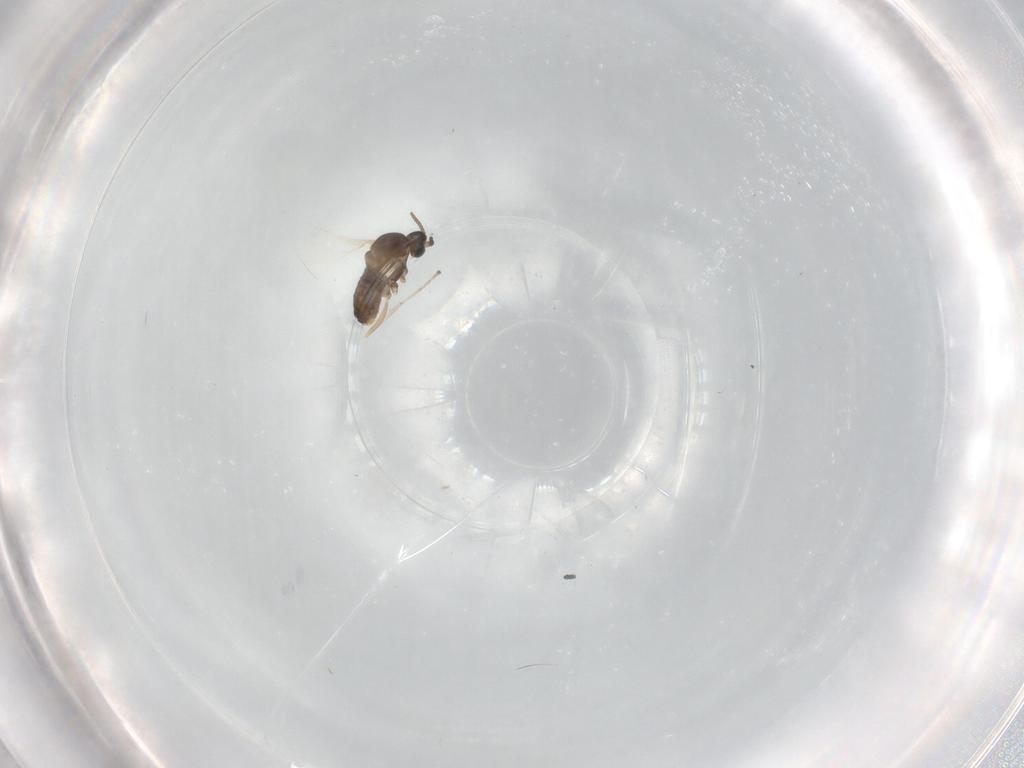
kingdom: Animalia
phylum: Arthropoda
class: Insecta
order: Diptera
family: Cecidomyiidae
